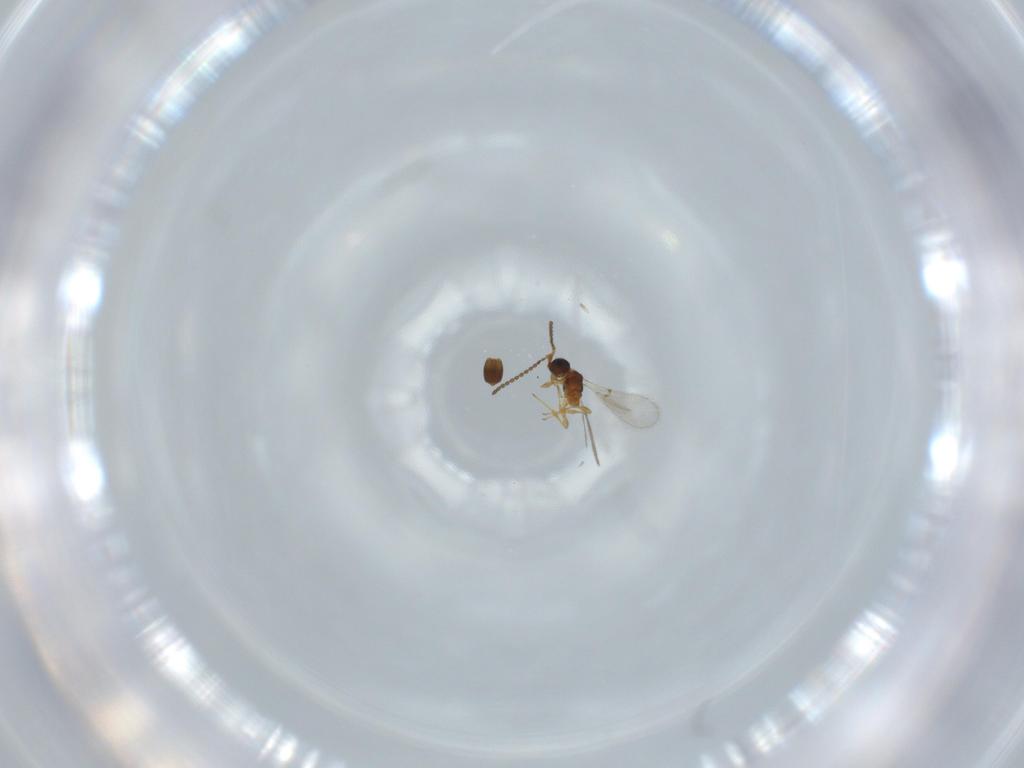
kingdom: Animalia
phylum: Arthropoda
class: Insecta
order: Hymenoptera
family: Diapriidae
